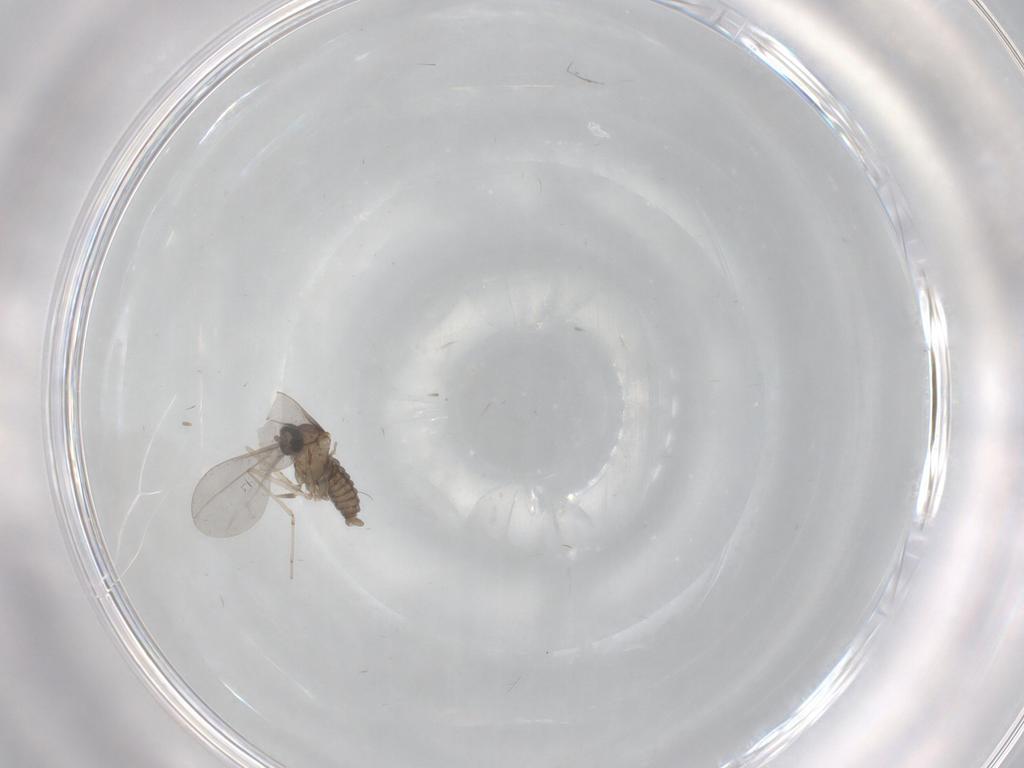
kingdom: Animalia
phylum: Arthropoda
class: Insecta
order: Diptera
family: Cecidomyiidae
